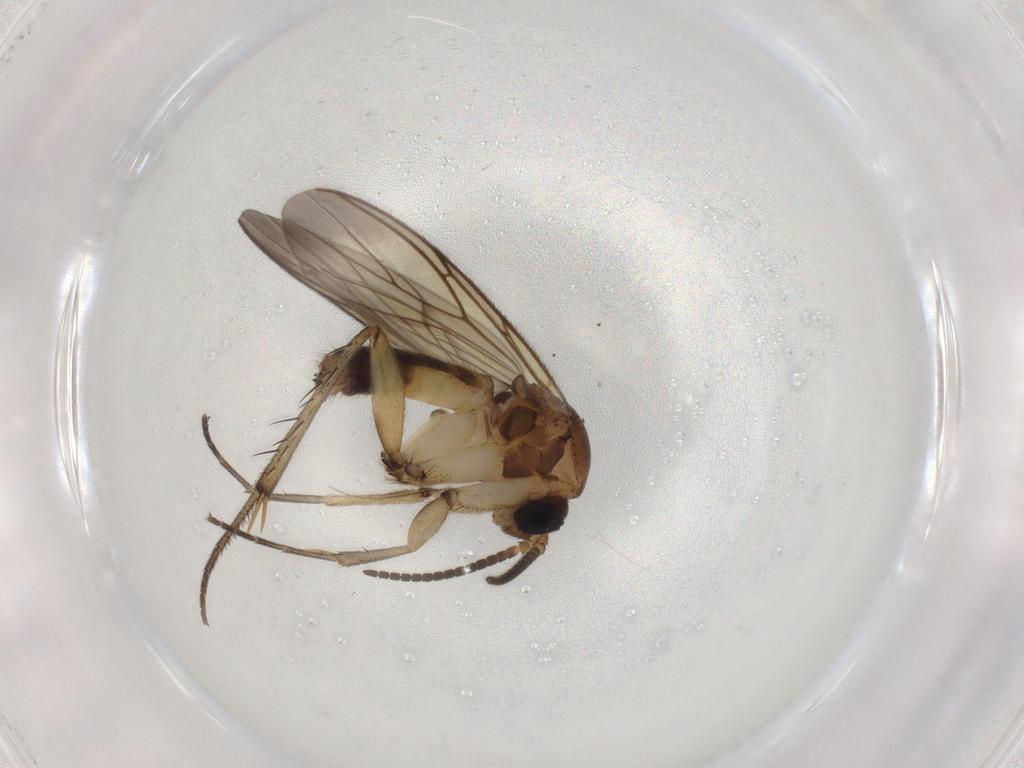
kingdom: Animalia
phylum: Arthropoda
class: Insecta
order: Diptera
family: Mycetophilidae
